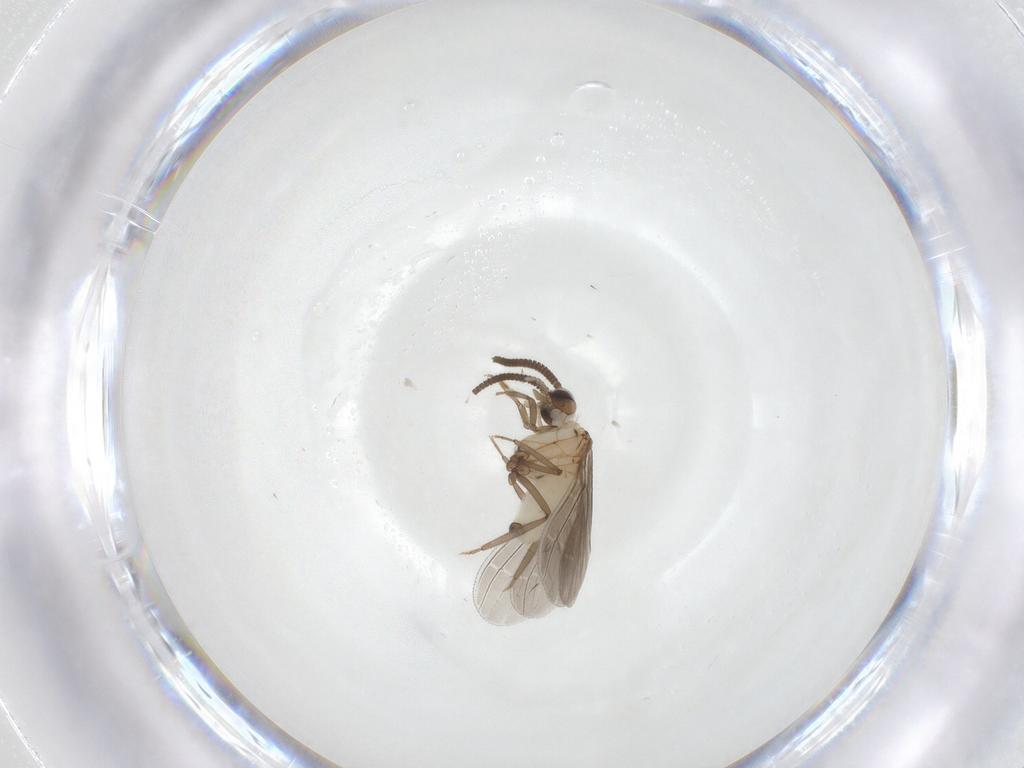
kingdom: Animalia
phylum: Arthropoda
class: Insecta
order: Neuroptera
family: Coniopterygidae
